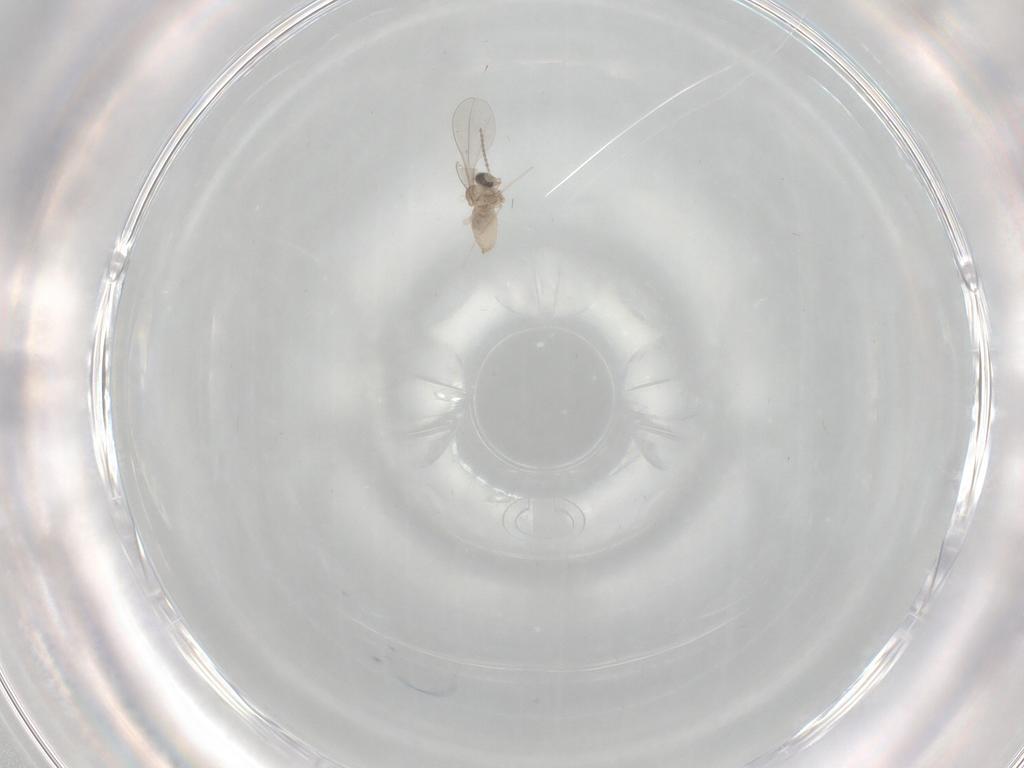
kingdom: Animalia
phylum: Arthropoda
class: Insecta
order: Diptera
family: Cecidomyiidae
